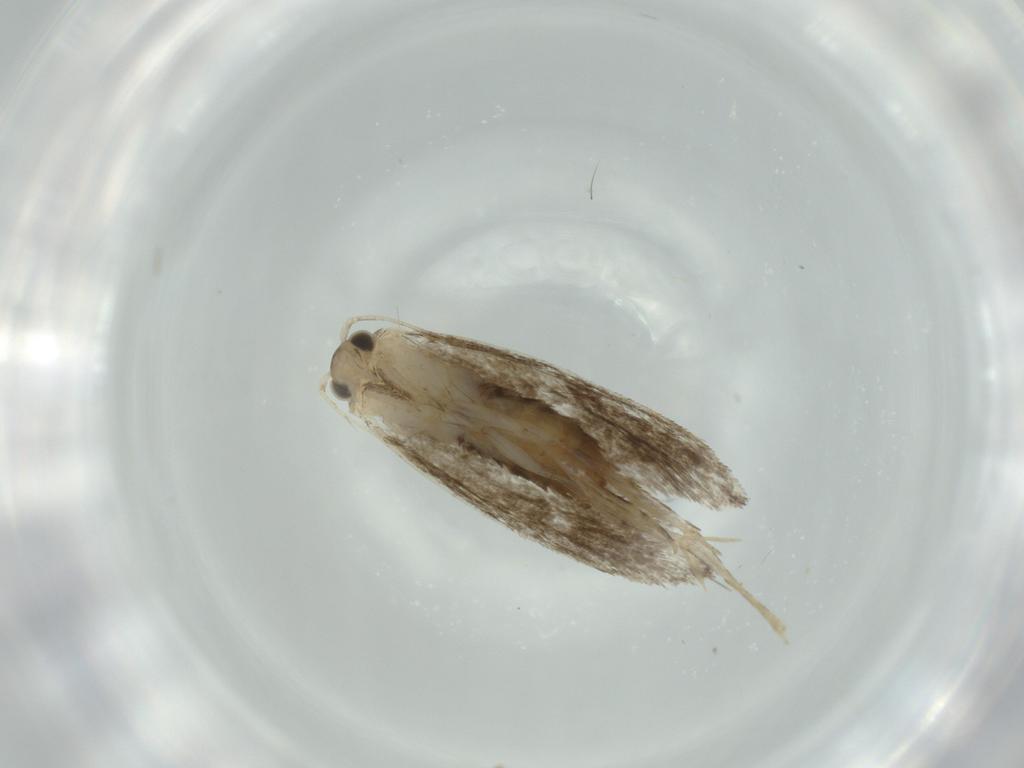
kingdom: Animalia
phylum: Arthropoda
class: Insecta
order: Lepidoptera
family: Tineidae
